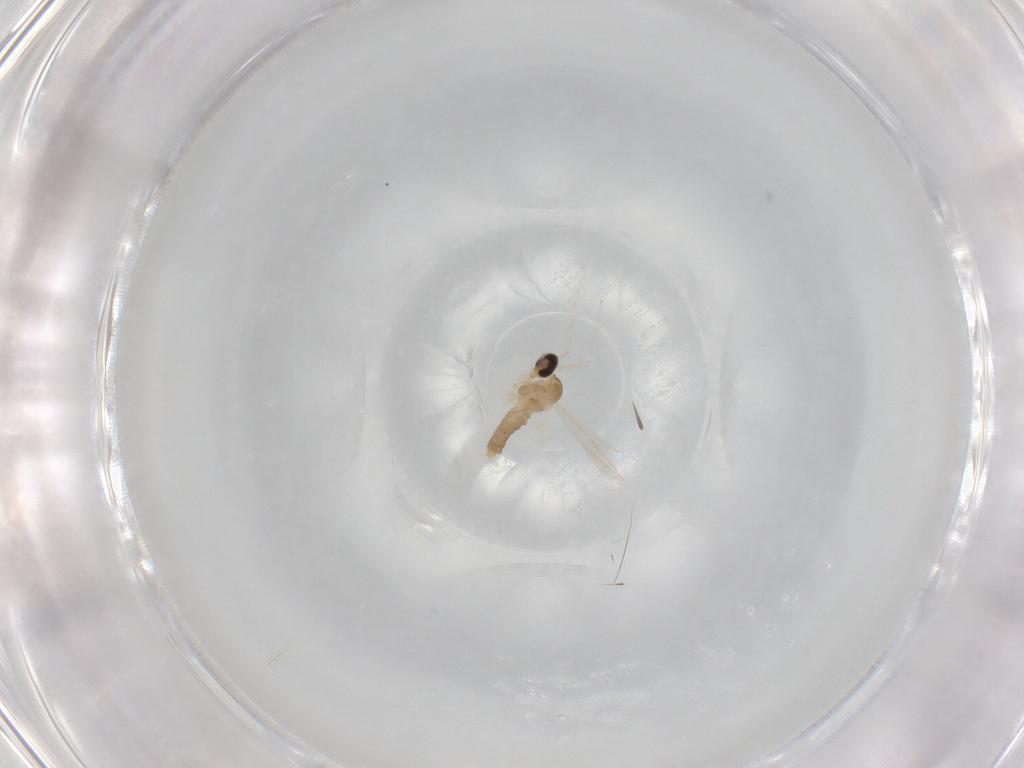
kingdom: Animalia
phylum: Arthropoda
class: Insecta
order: Diptera
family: Cecidomyiidae
